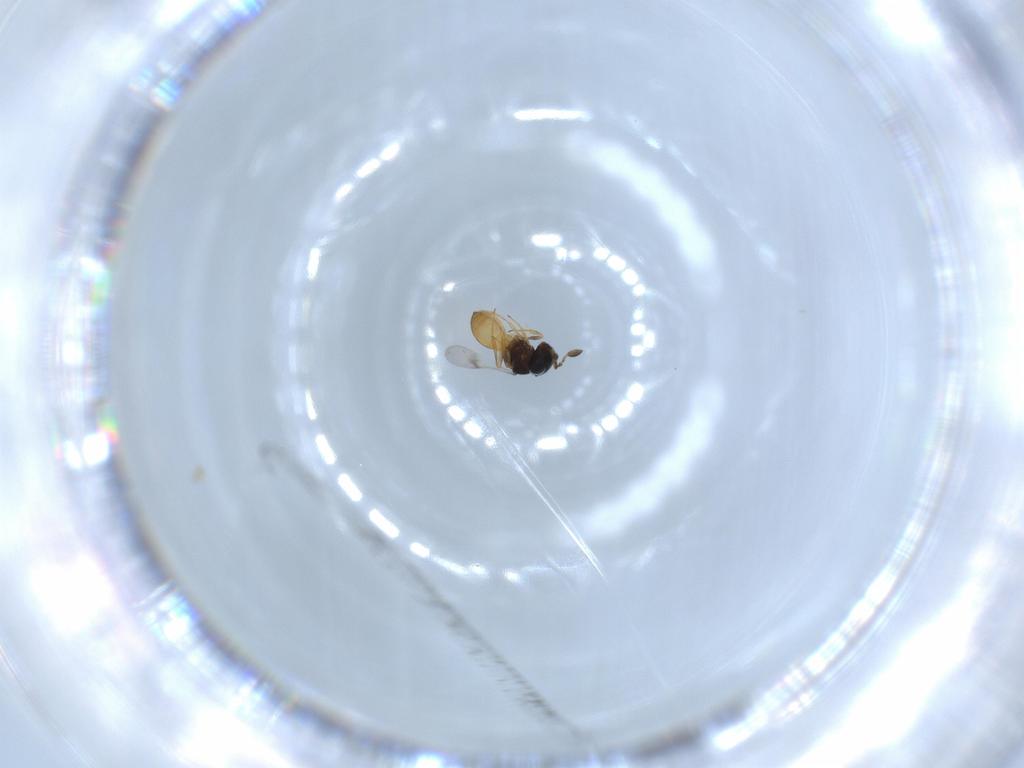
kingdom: Animalia
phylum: Arthropoda
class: Insecta
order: Hymenoptera
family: Scelionidae
